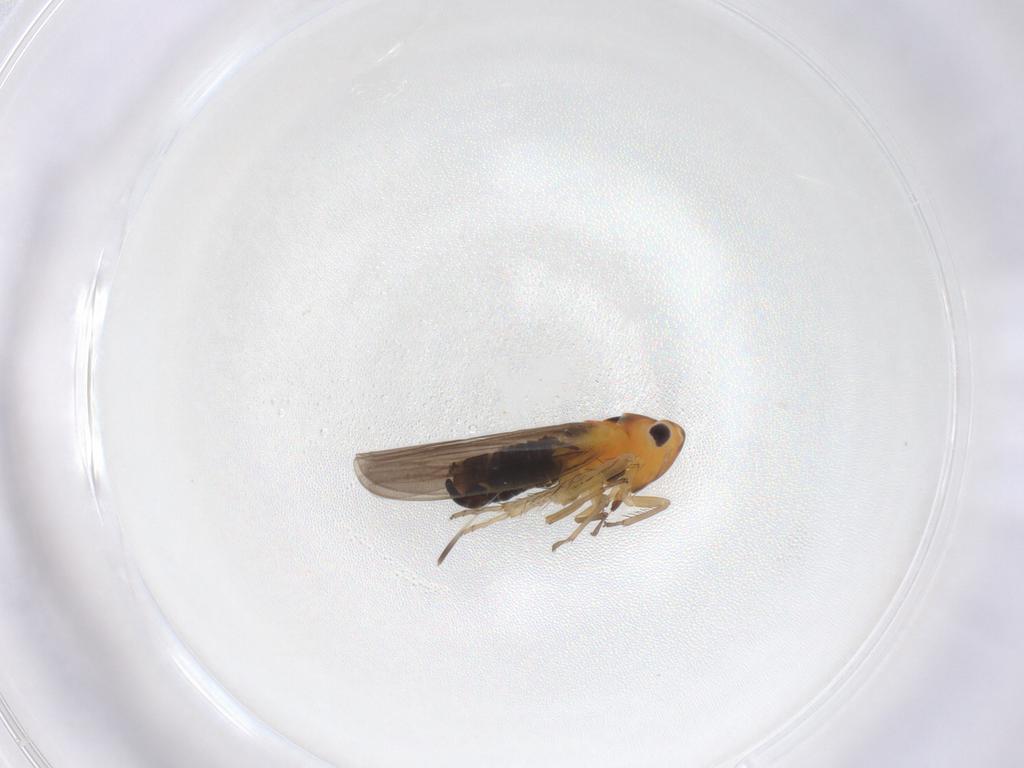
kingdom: Animalia
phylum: Arthropoda
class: Insecta
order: Hemiptera
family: Cicadellidae
